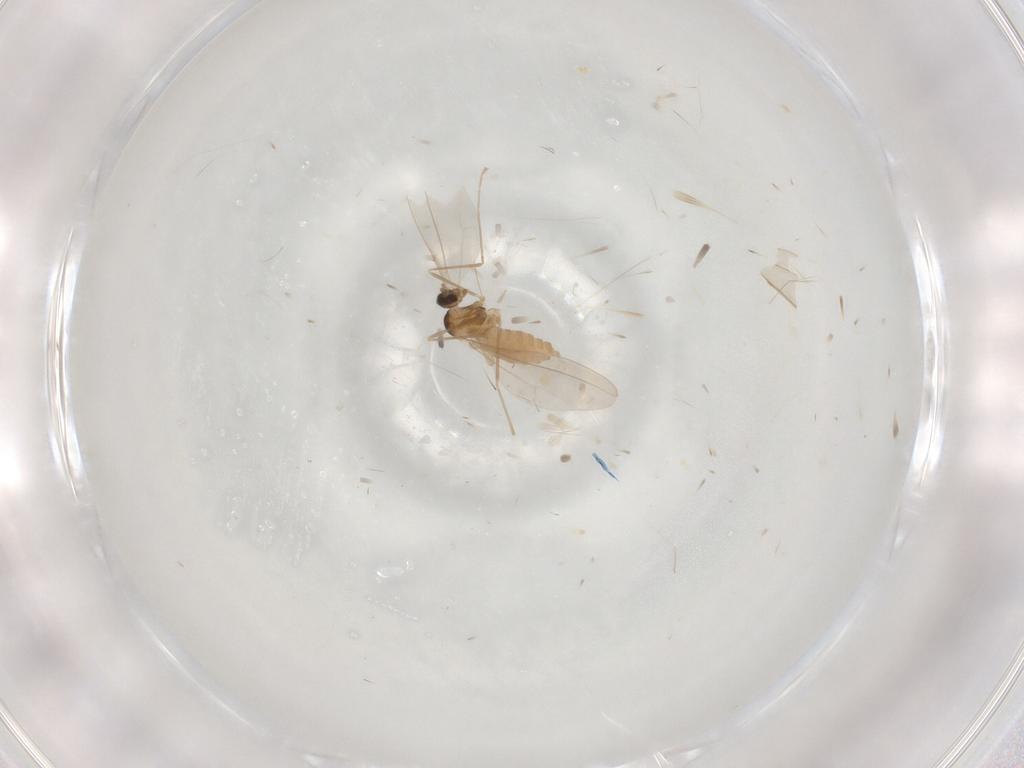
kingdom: Animalia
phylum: Arthropoda
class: Insecta
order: Diptera
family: Cecidomyiidae
